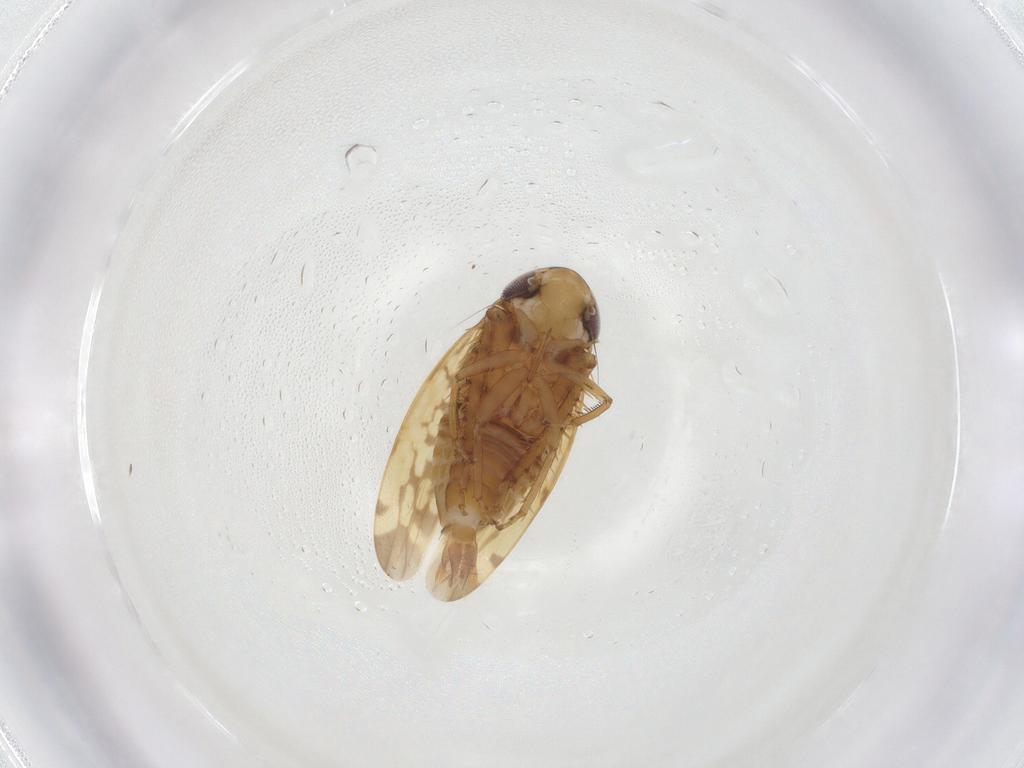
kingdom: Animalia
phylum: Arthropoda
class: Insecta
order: Hemiptera
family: Cicadellidae
